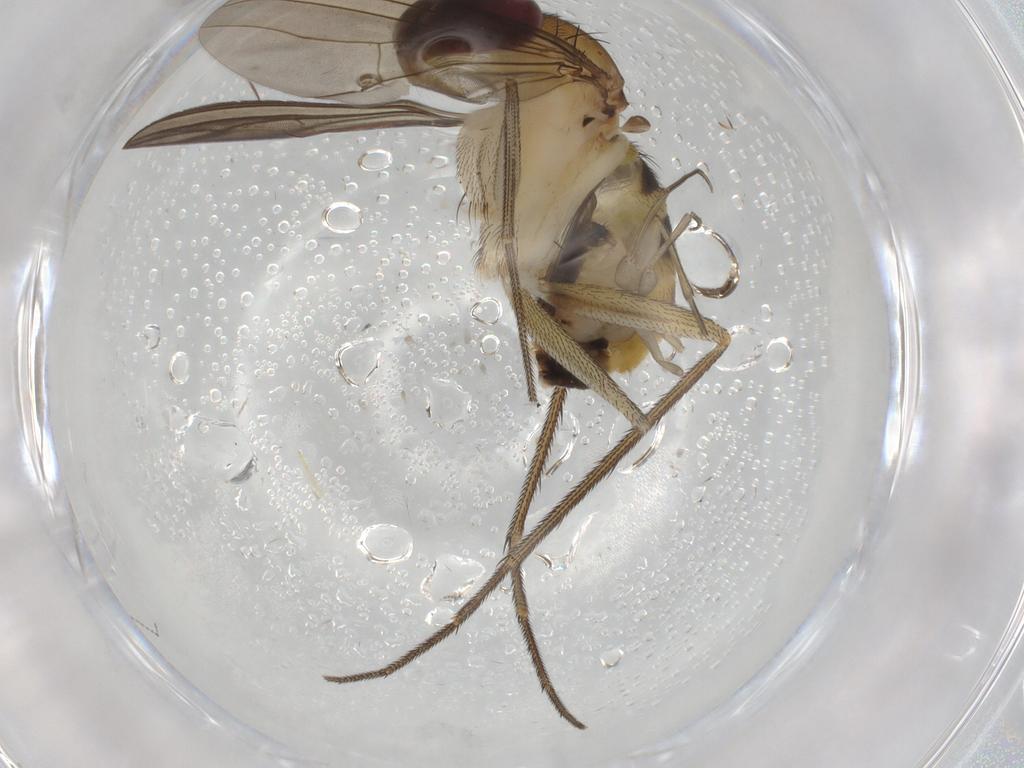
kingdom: Animalia
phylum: Arthropoda
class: Insecta
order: Diptera
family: Dolichopodidae
